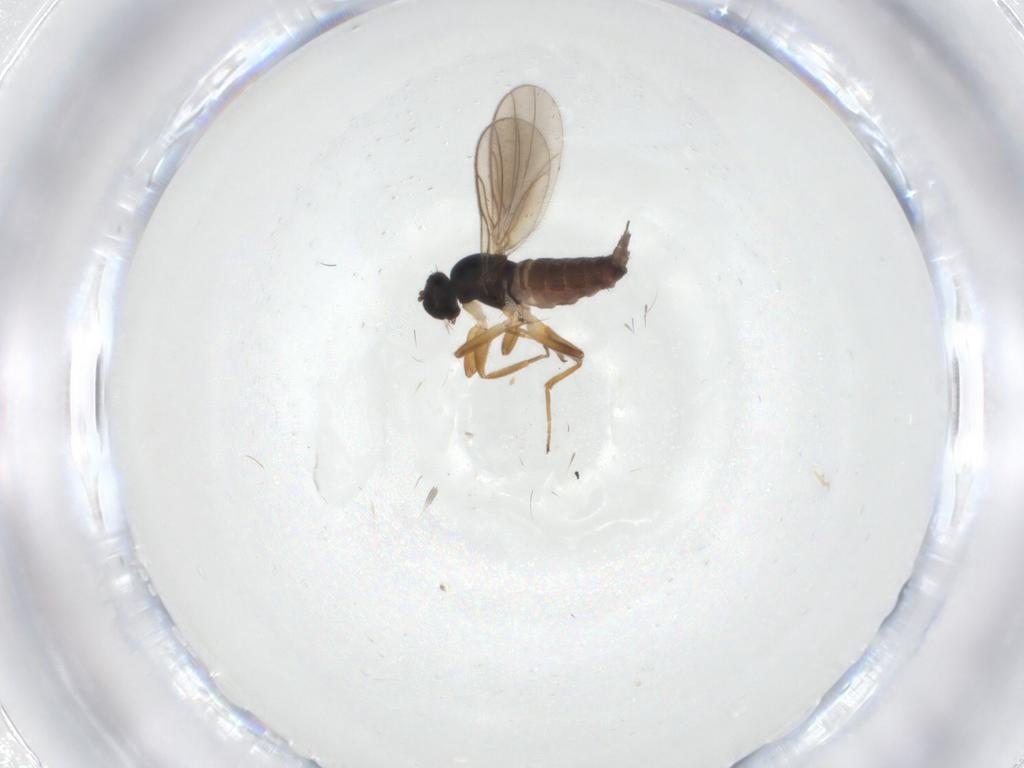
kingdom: Animalia
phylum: Arthropoda
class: Insecta
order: Diptera
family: Hybotidae
